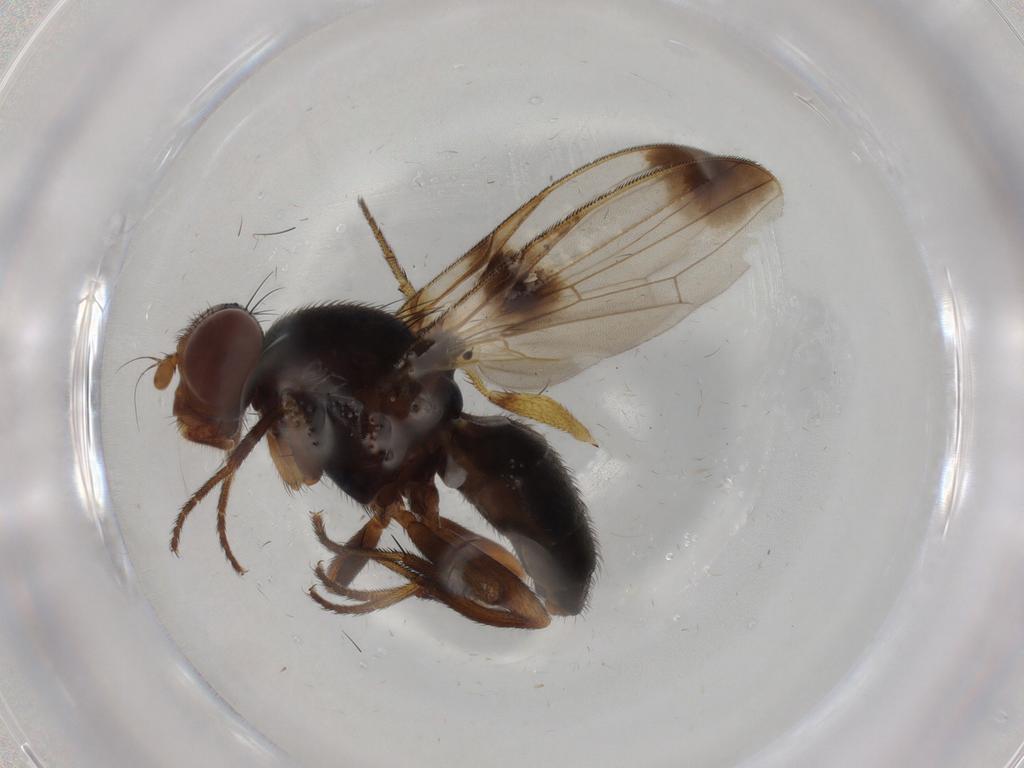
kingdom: Animalia
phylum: Arthropoda
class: Insecta
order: Diptera
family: Ulidiidae
